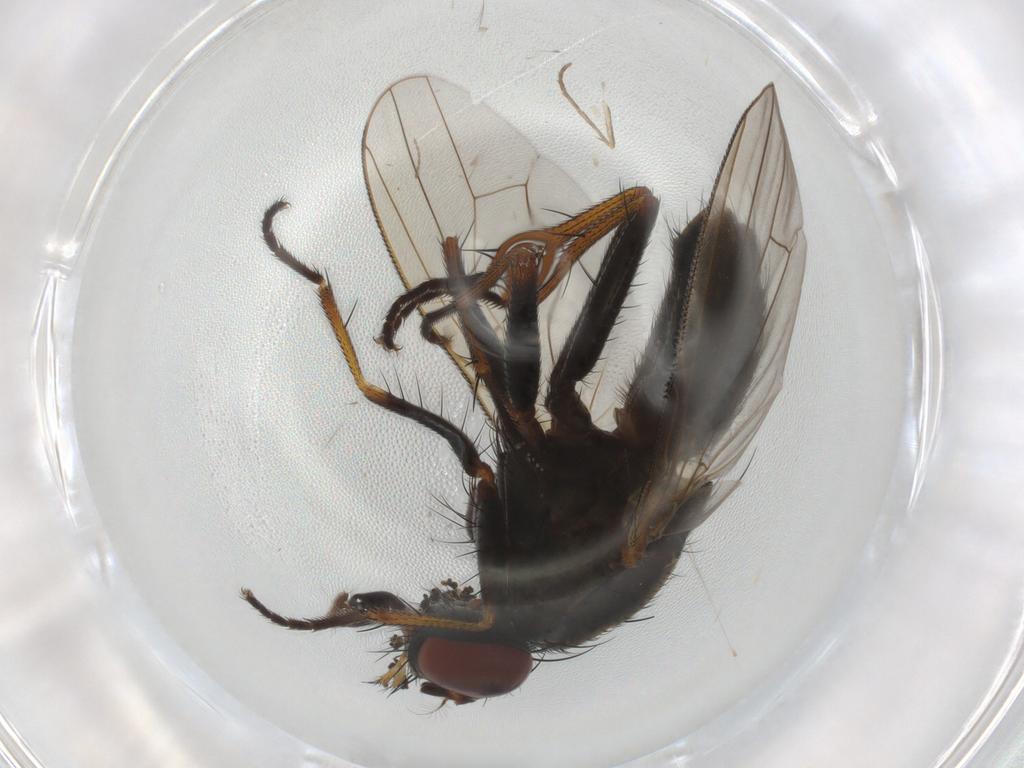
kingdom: Animalia
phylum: Arthropoda
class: Insecta
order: Diptera
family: Muscidae
